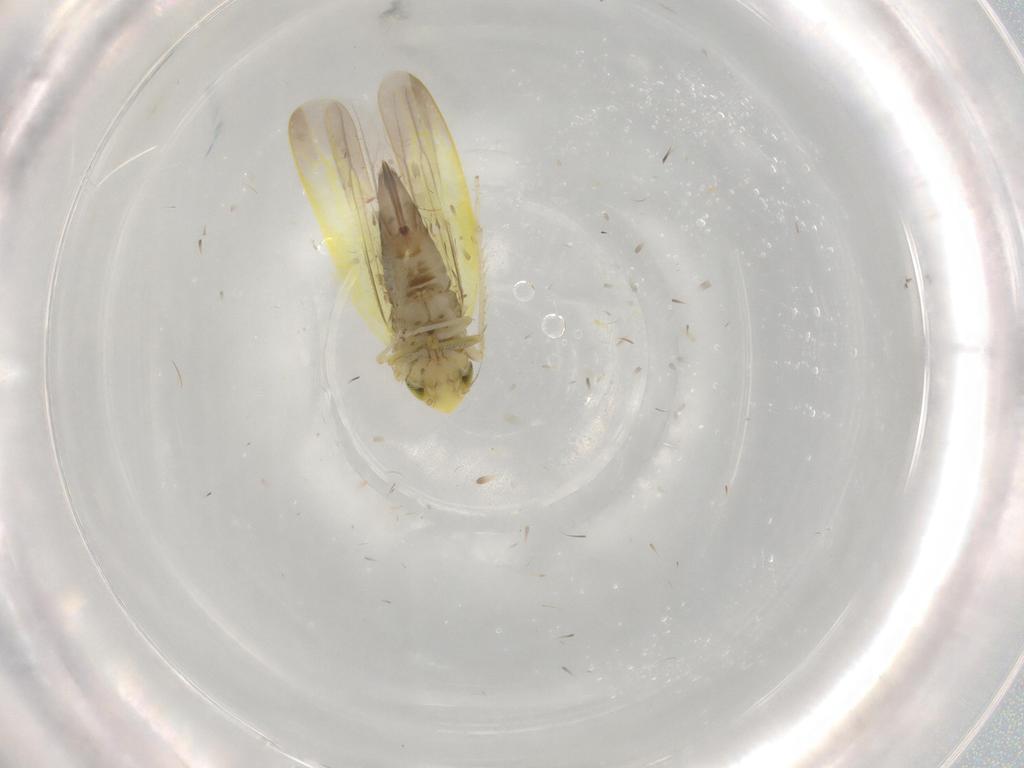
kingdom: Animalia
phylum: Arthropoda
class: Insecta
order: Hemiptera
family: Cicadellidae
